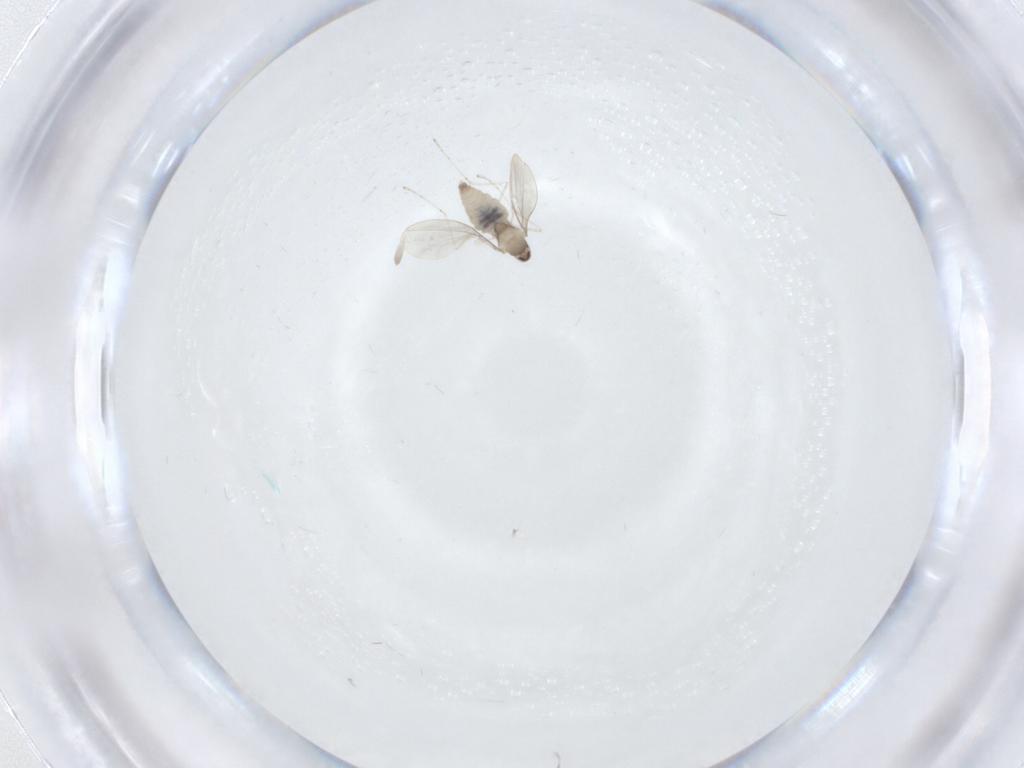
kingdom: Animalia
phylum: Arthropoda
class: Insecta
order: Diptera
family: Cecidomyiidae
